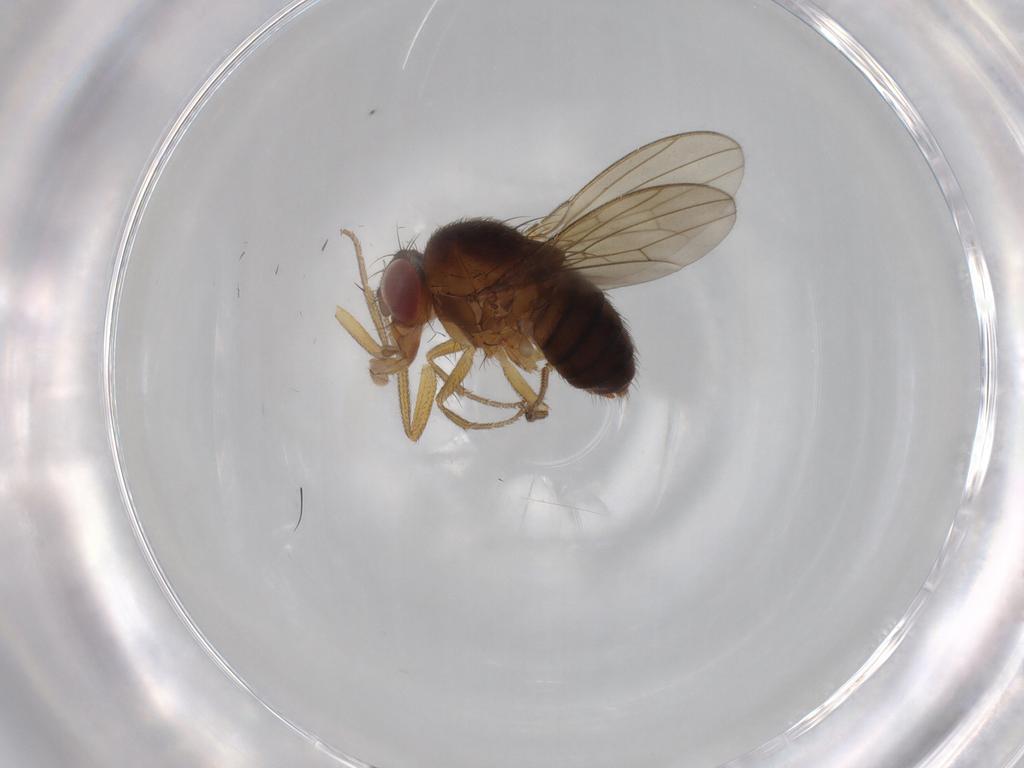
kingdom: Animalia
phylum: Arthropoda
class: Insecta
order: Diptera
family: Drosophilidae
